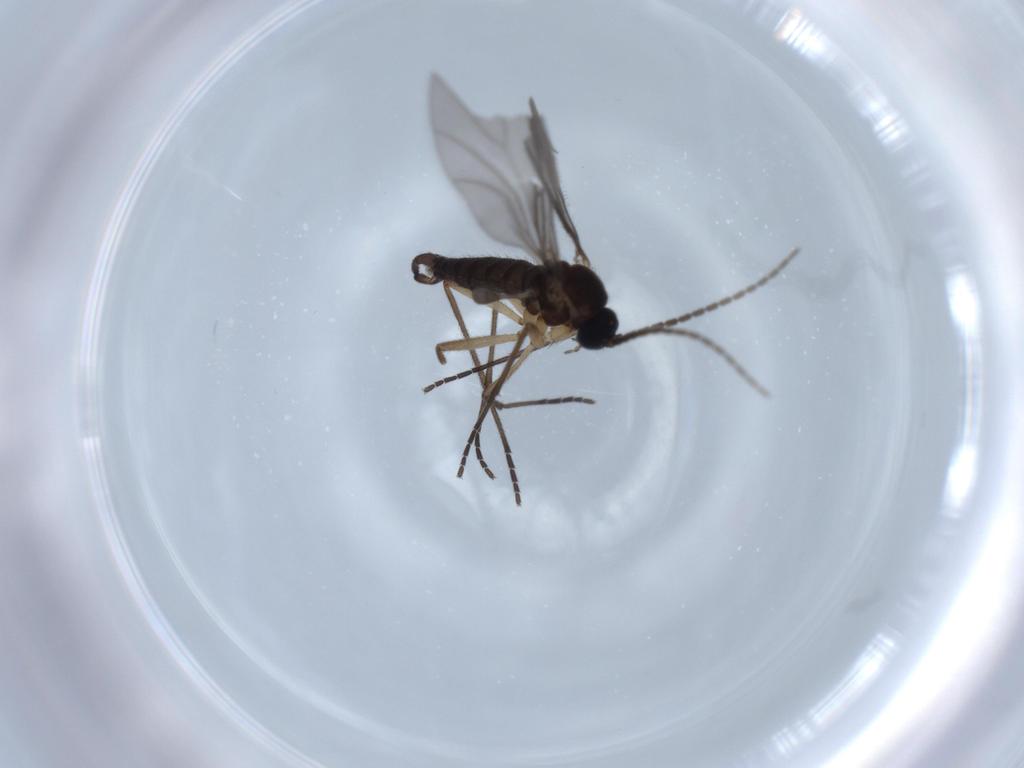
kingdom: Animalia
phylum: Arthropoda
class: Insecta
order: Diptera
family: Sciaridae
